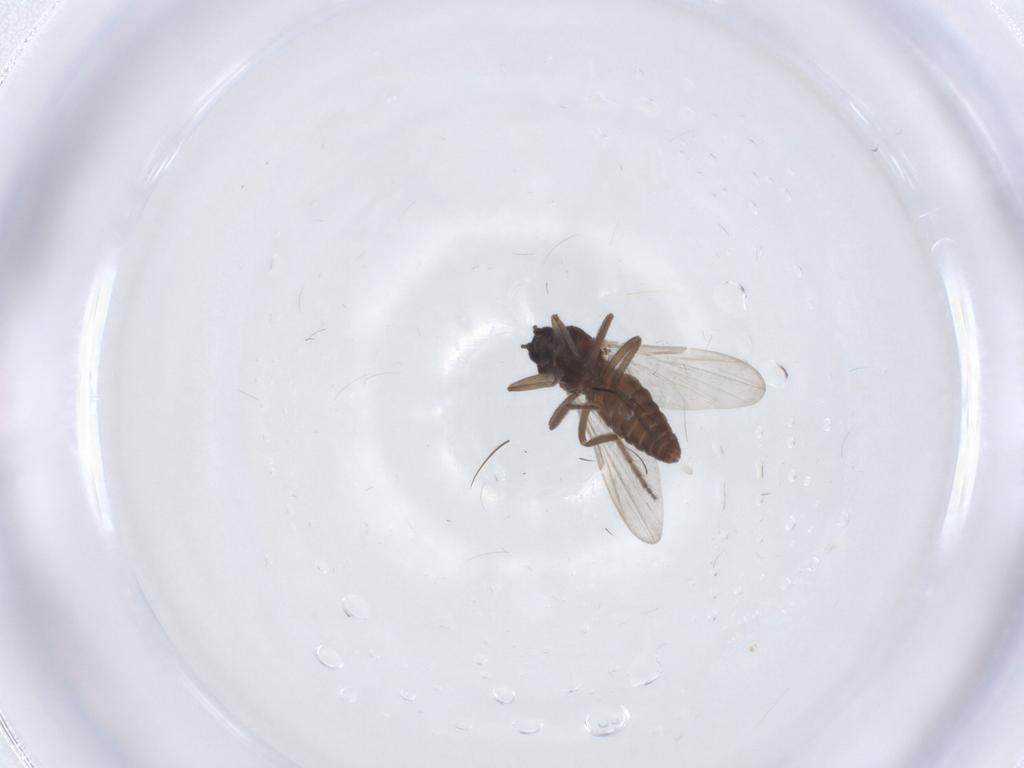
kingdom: Animalia
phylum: Arthropoda
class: Insecta
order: Diptera
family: Ceratopogonidae
